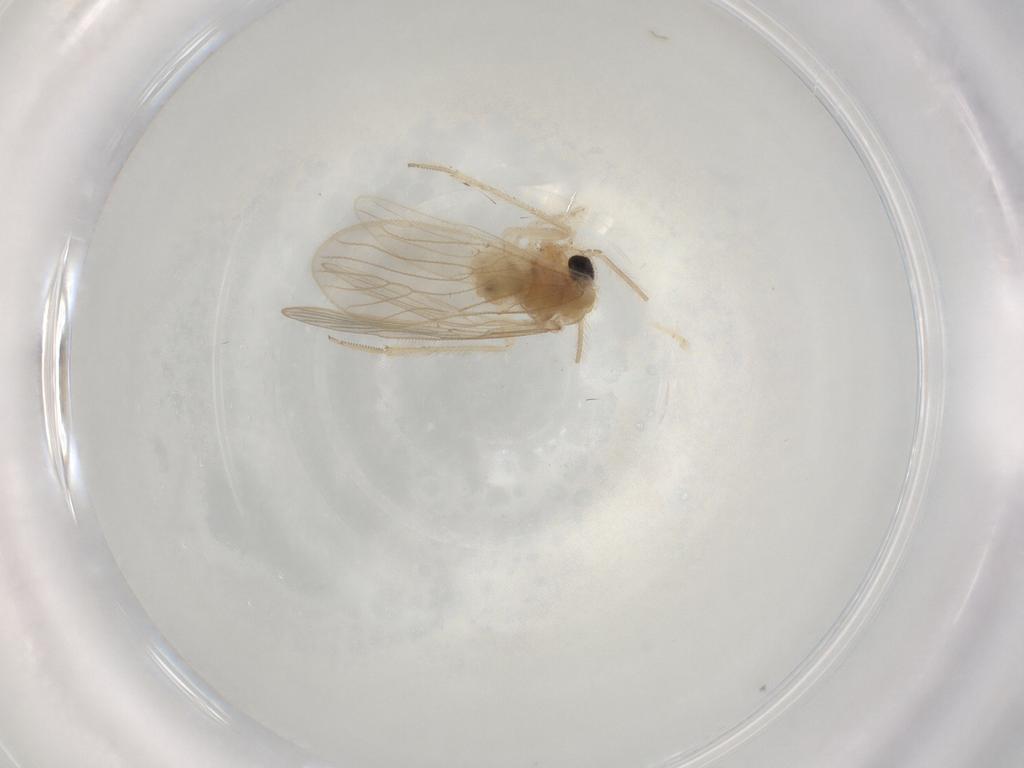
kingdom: Animalia
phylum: Arthropoda
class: Insecta
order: Psocodea
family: Cladiopsocidae
